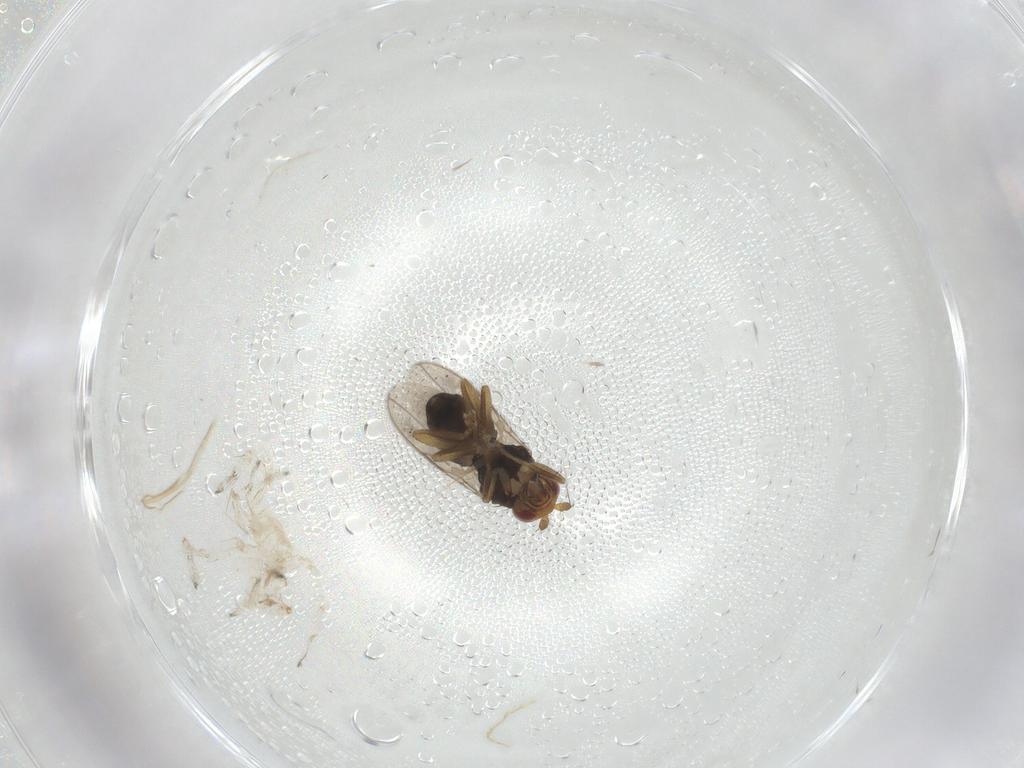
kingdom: Animalia
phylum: Arthropoda
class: Insecta
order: Diptera
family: Sphaeroceridae
